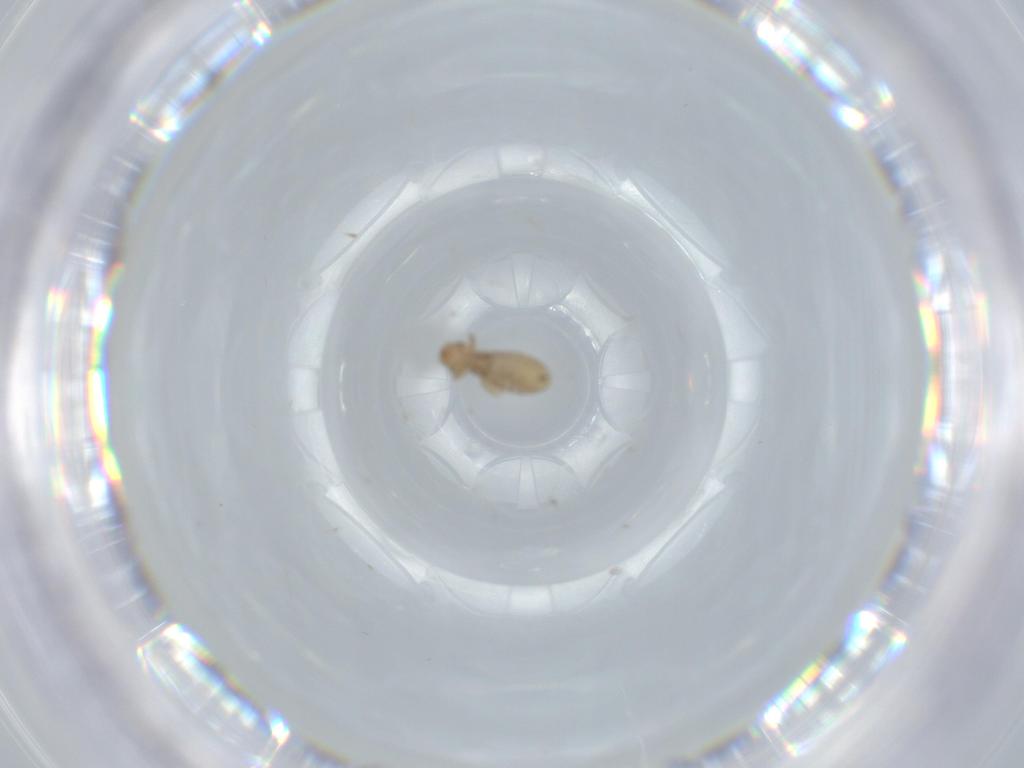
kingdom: Animalia
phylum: Arthropoda
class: Insecta
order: Psocodea
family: Liposcelididae
